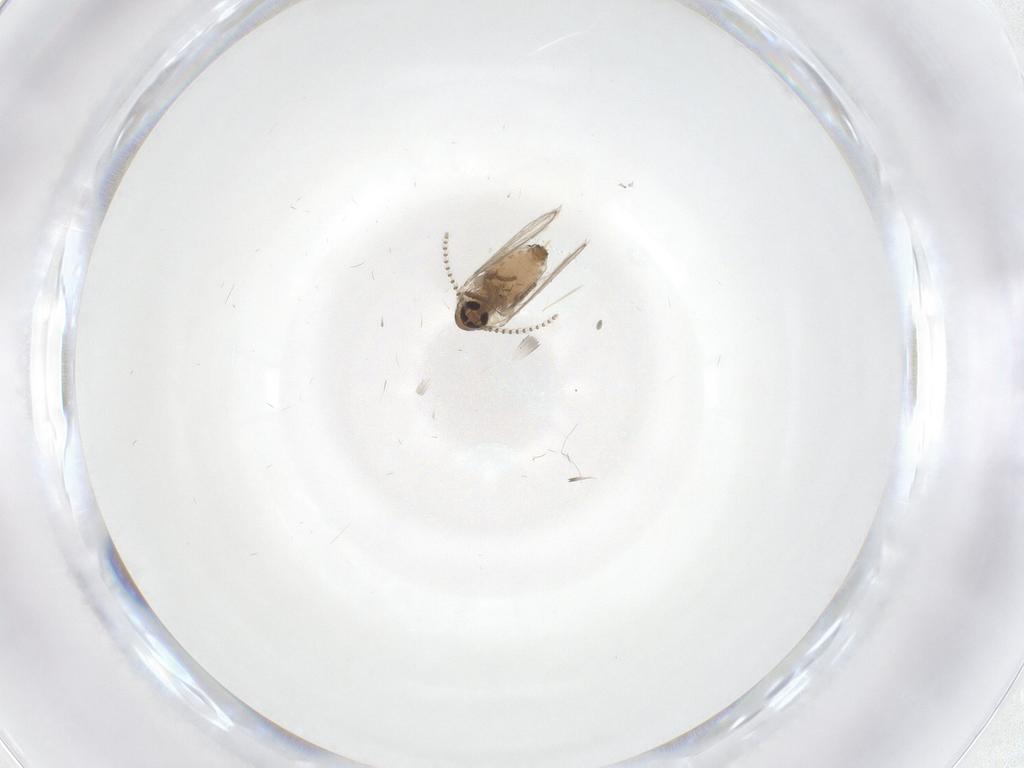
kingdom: Animalia
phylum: Arthropoda
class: Insecta
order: Diptera
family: Psychodidae
